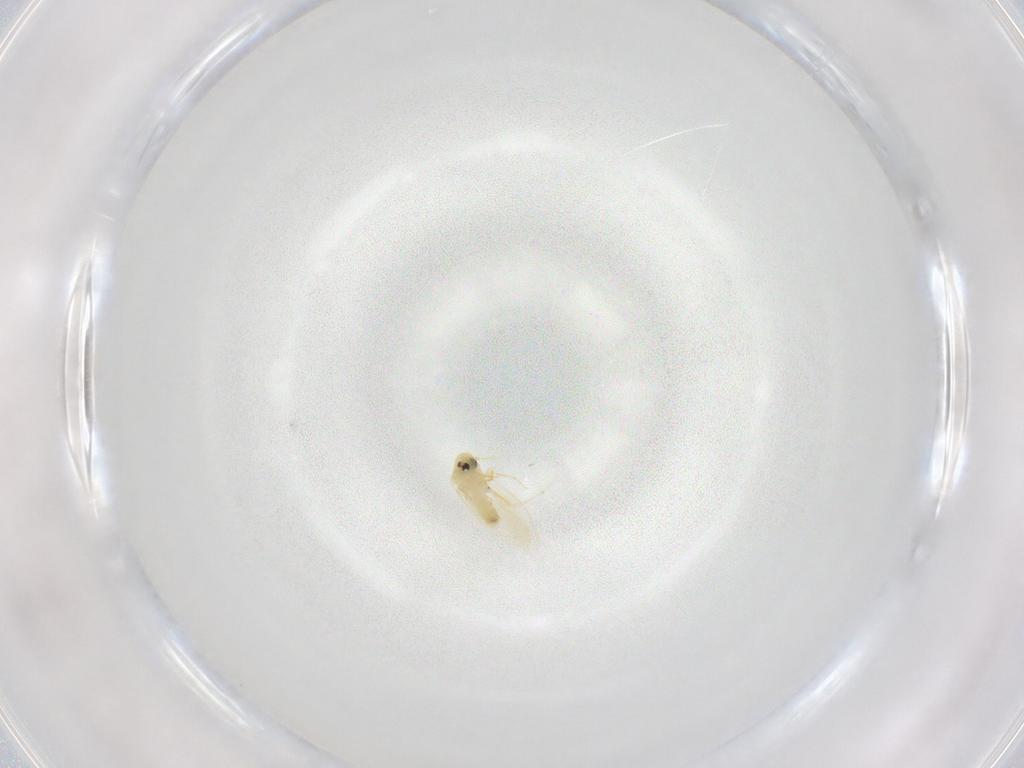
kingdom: Animalia
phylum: Arthropoda
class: Insecta
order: Hemiptera
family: Aleyrodidae
